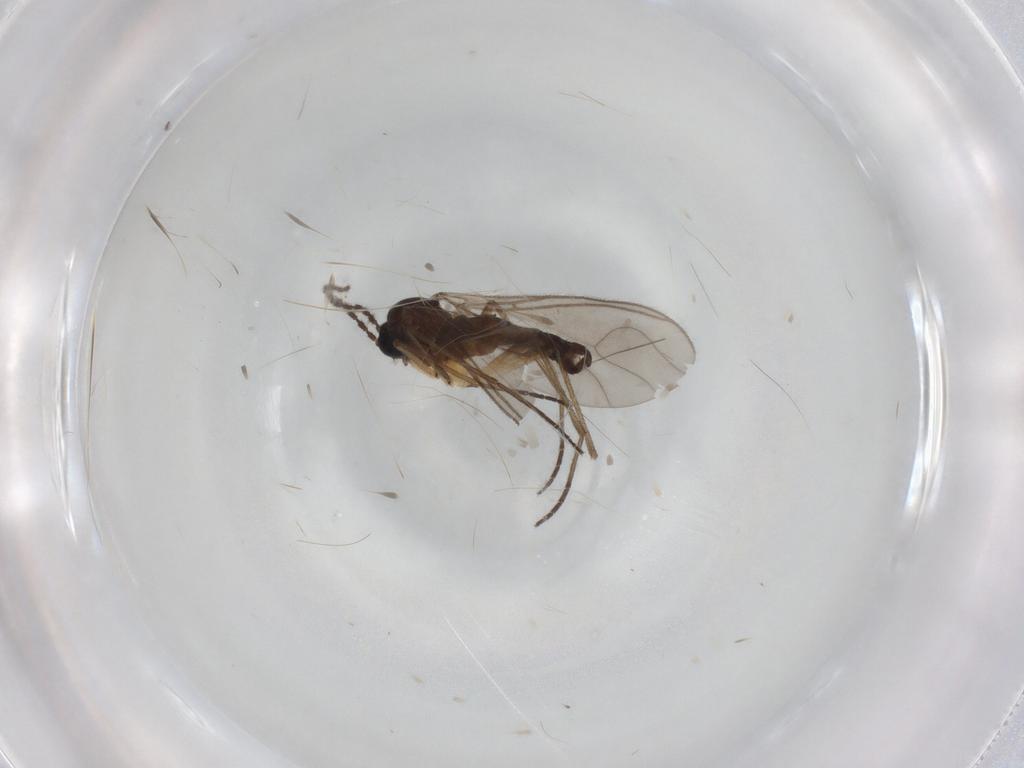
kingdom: Animalia
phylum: Arthropoda
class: Insecta
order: Diptera
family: Sciaridae
